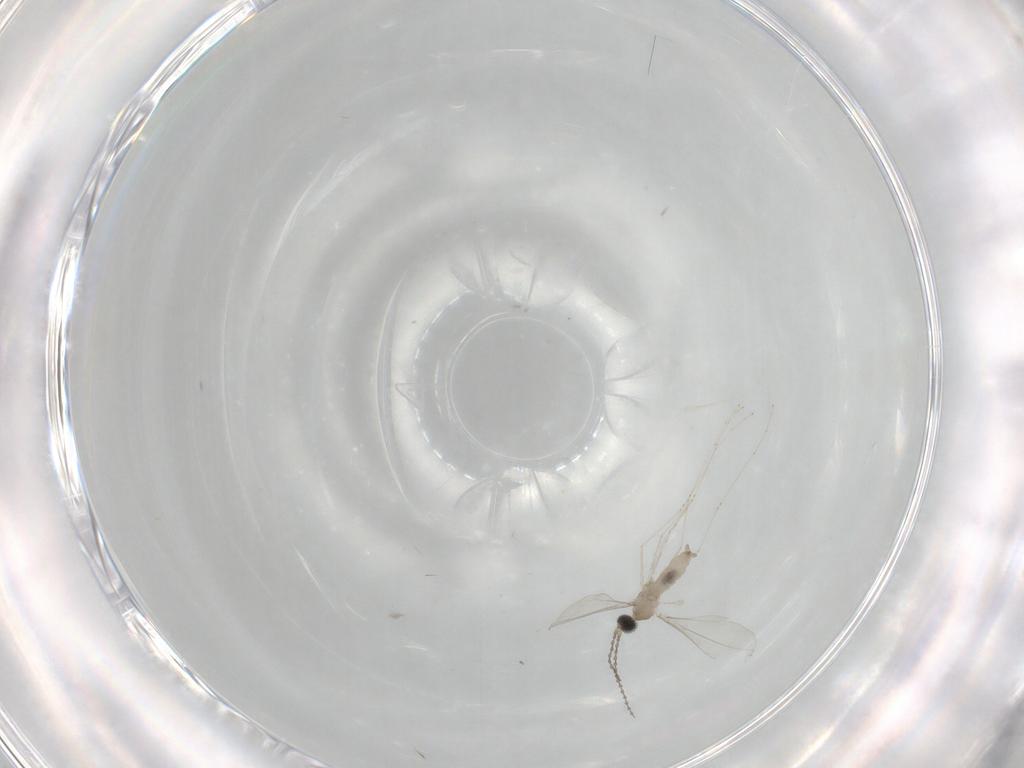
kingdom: Animalia
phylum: Arthropoda
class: Insecta
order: Diptera
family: Cecidomyiidae
